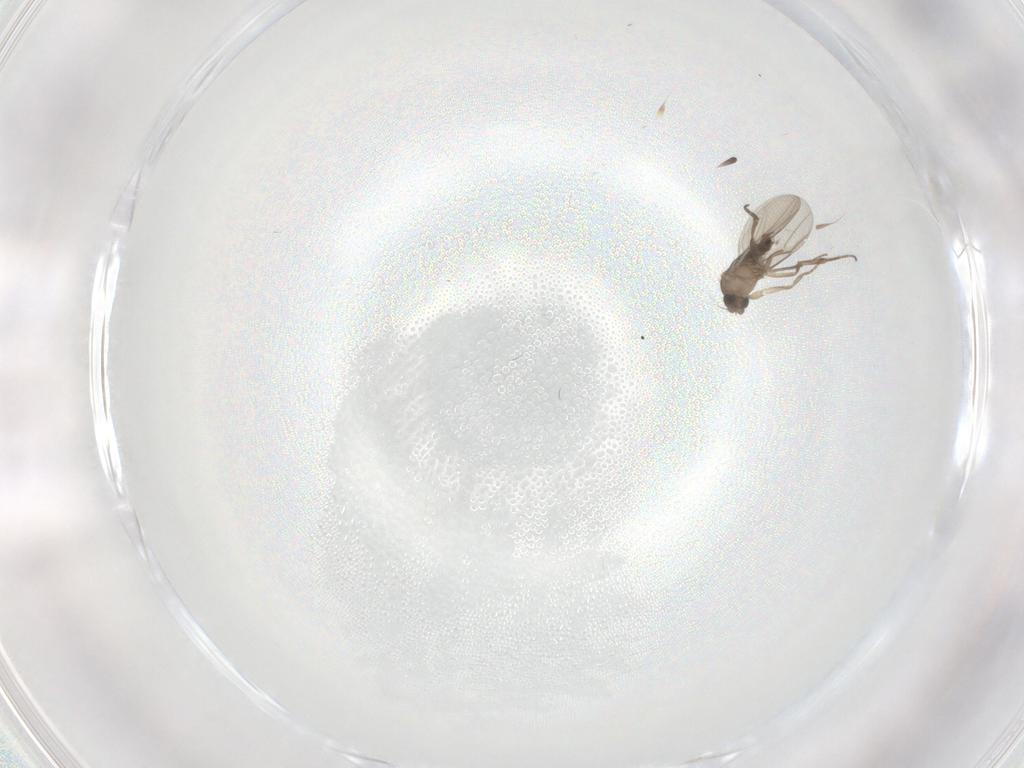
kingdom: Animalia
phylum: Arthropoda
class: Insecta
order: Diptera
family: Phoridae
